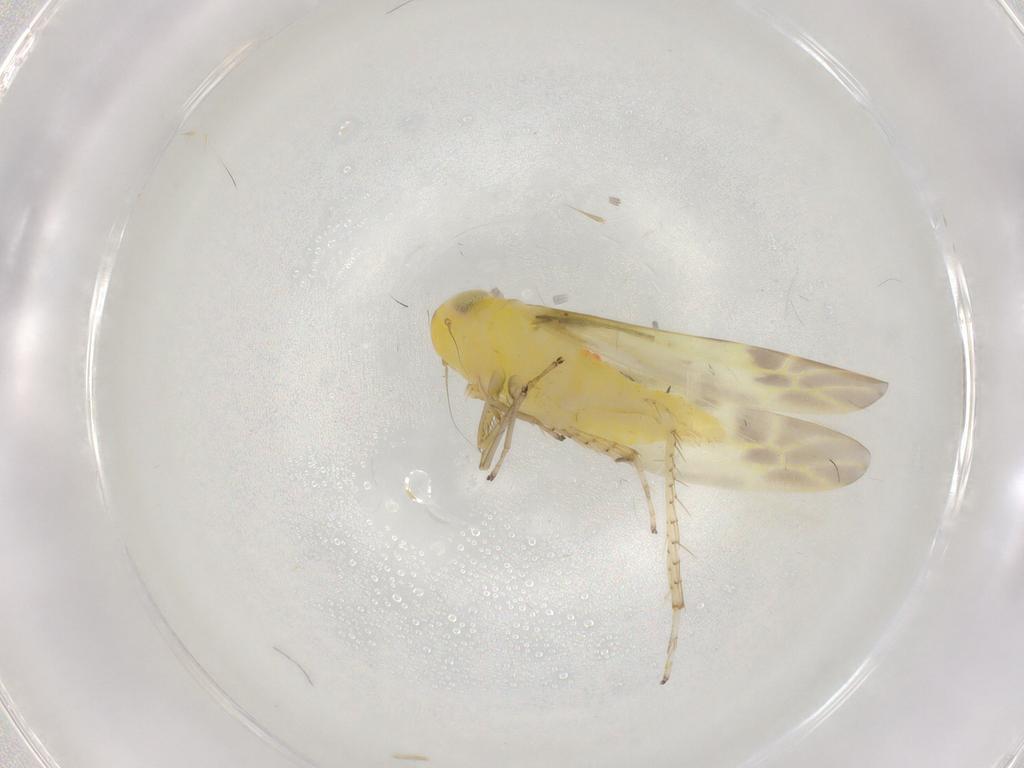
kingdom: Animalia
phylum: Arthropoda
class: Insecta
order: Hemiptera
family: Cicadellidae
